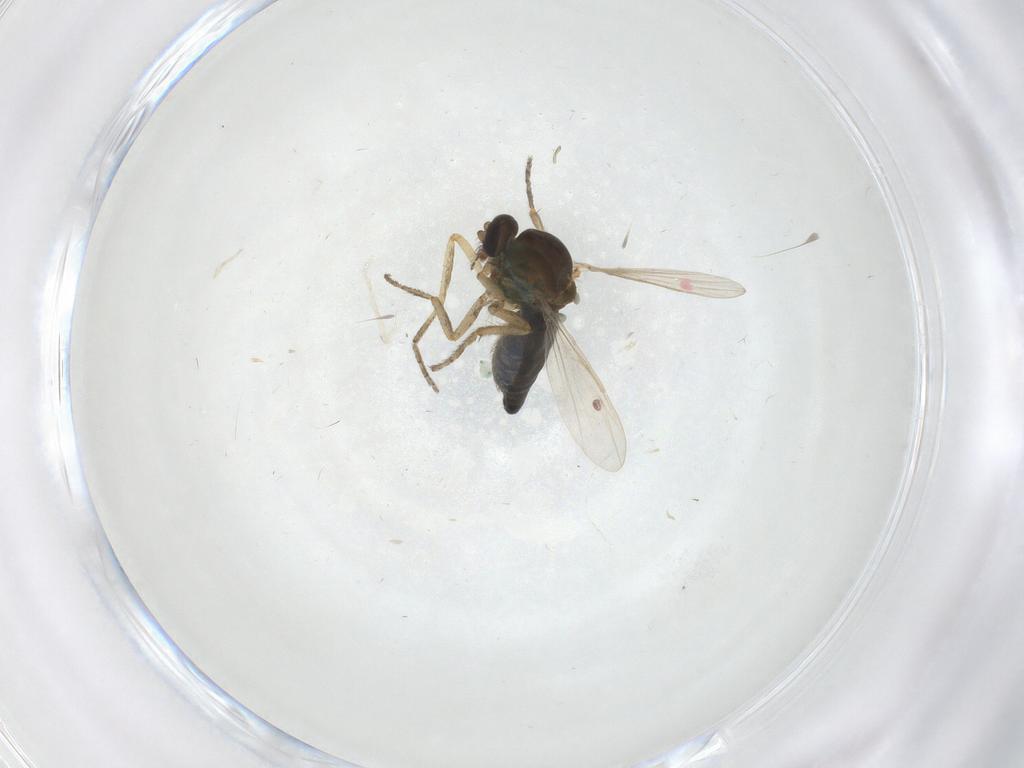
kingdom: Animalia
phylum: Arthropoda
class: Insecta
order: Diptera
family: Ceratopogonidae
